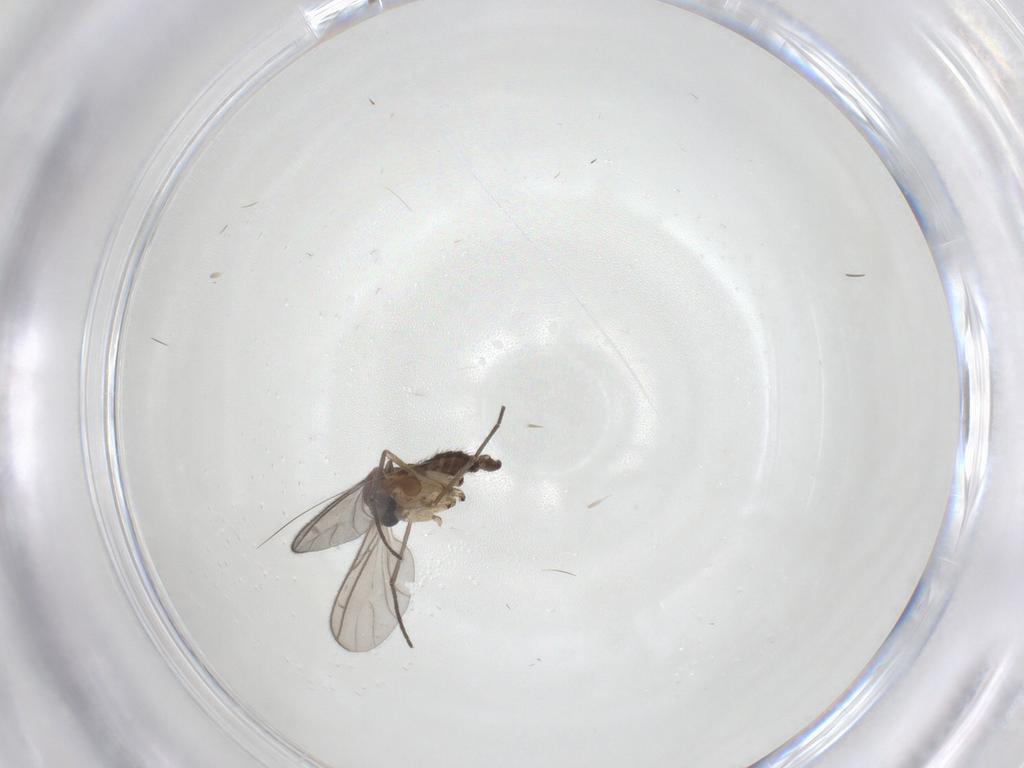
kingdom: Animalia
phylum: Arthropoda
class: Insecta
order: Diptera
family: Sciaridae
